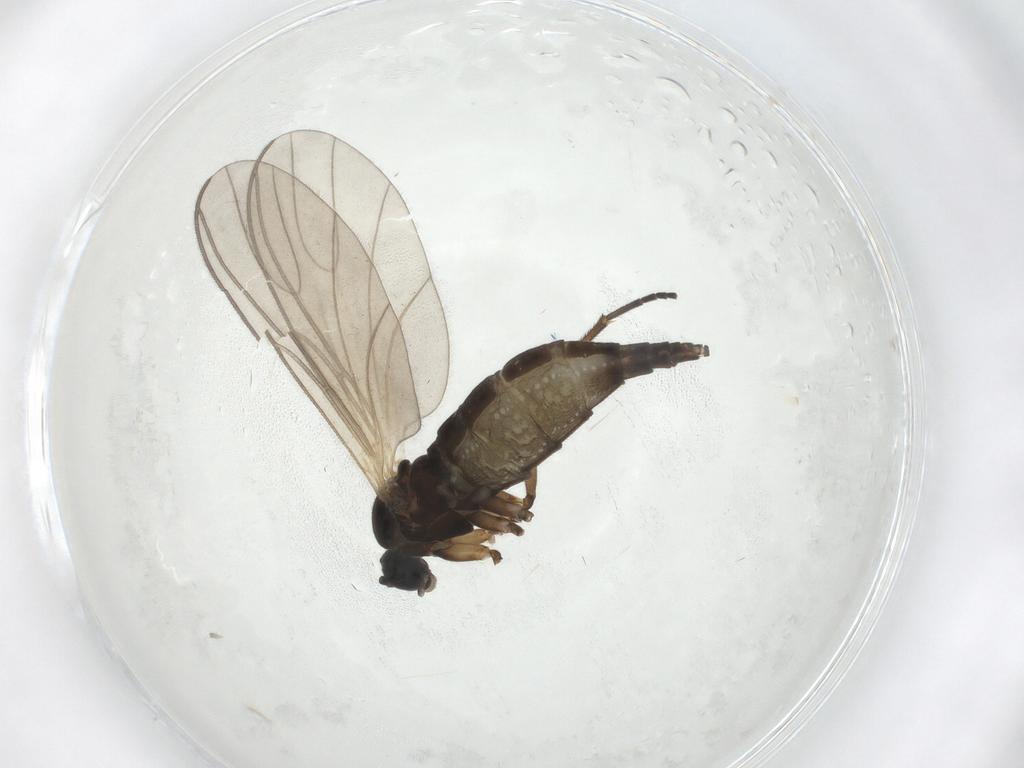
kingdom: Animalia
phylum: Arthropoda
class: Insecta
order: Diptera
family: Sciaridae
